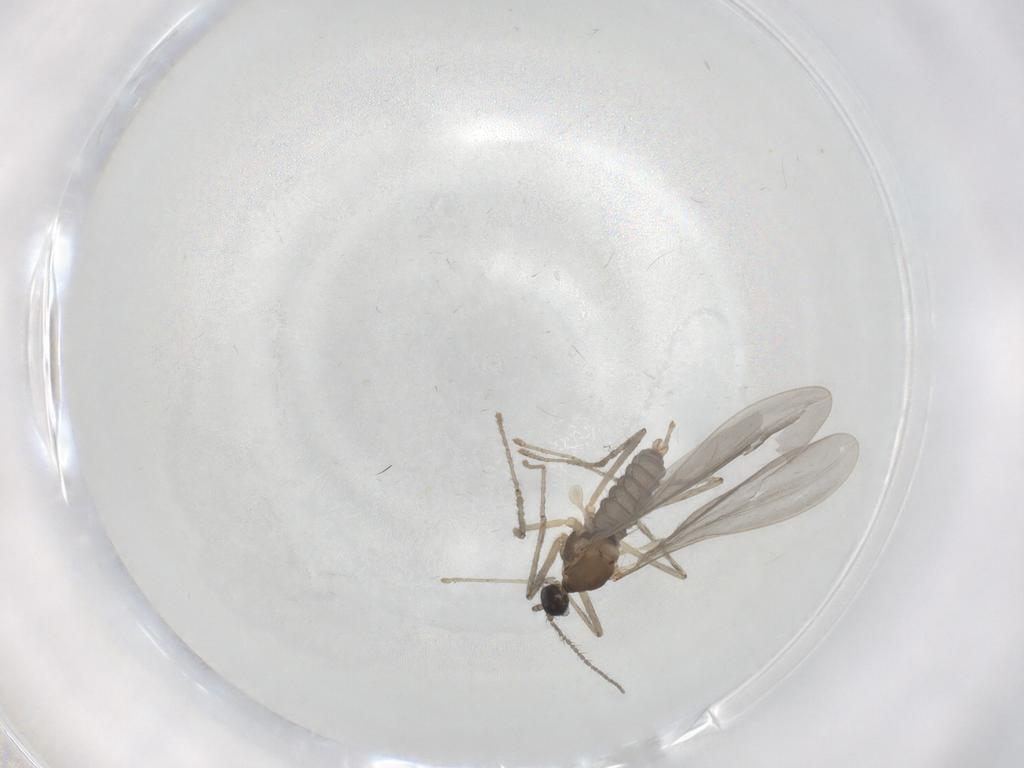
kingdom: Animalia
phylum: Arthropoda
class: Insecta
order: Diptera
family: Cecidomyiidae
